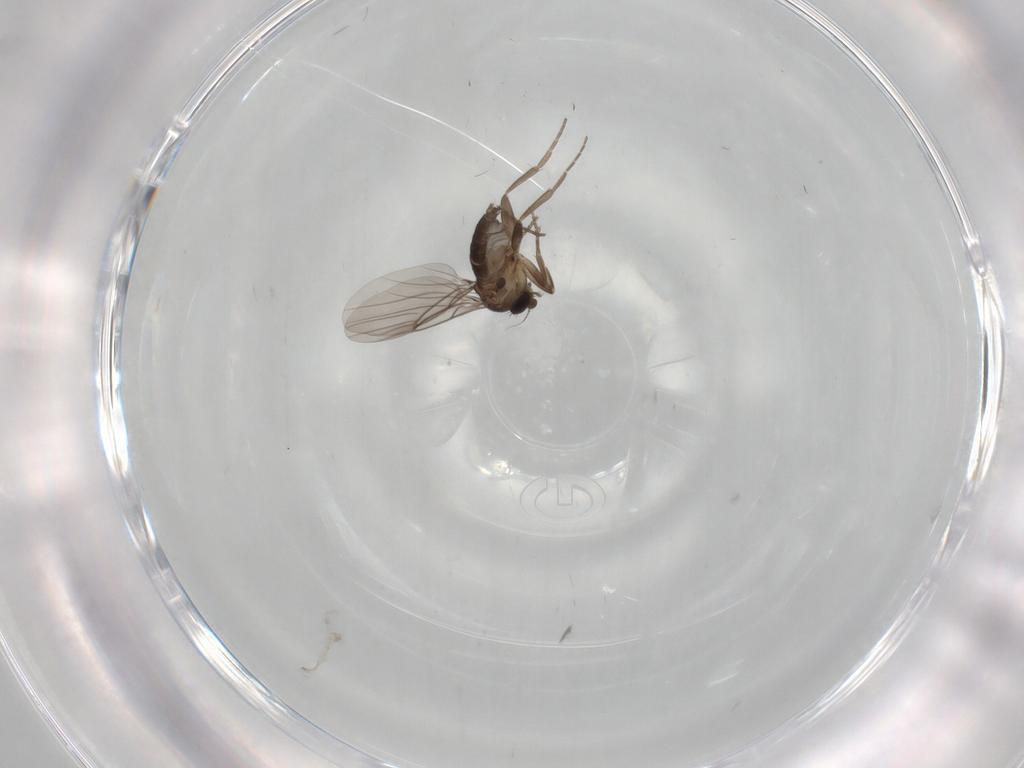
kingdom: Animalia
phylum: Arthropoda
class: Insecta
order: Diptera
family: Phoridae
